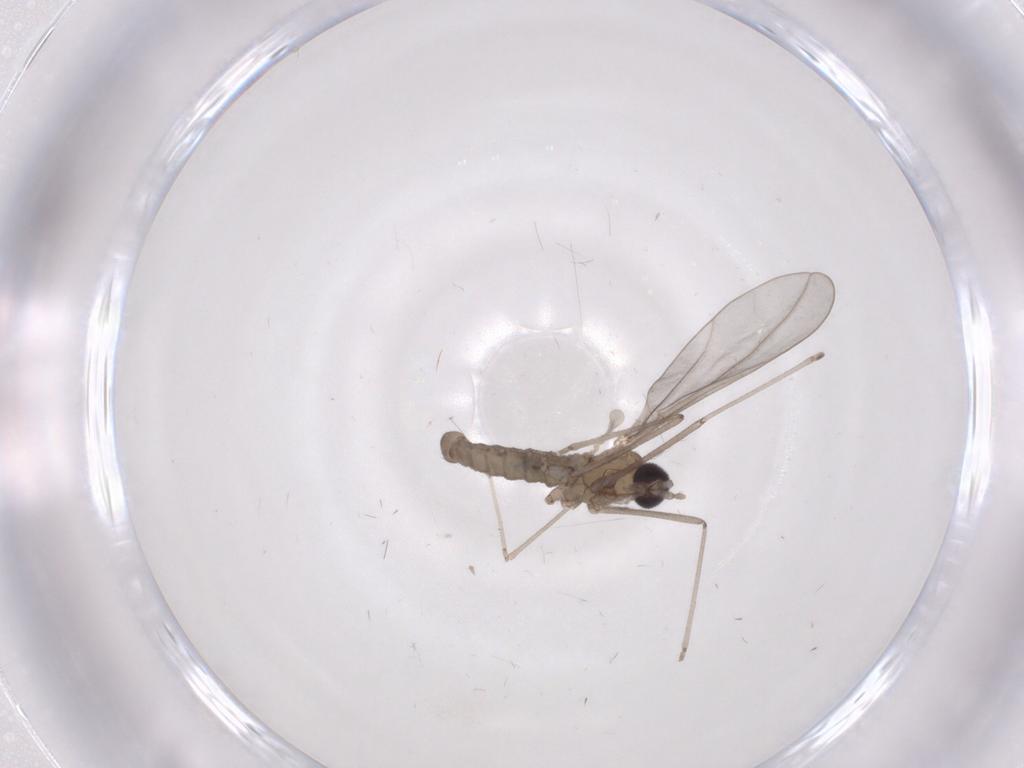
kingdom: Animalia
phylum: Arthropoda
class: Insecta
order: Diptera
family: Cecidomyiidae
